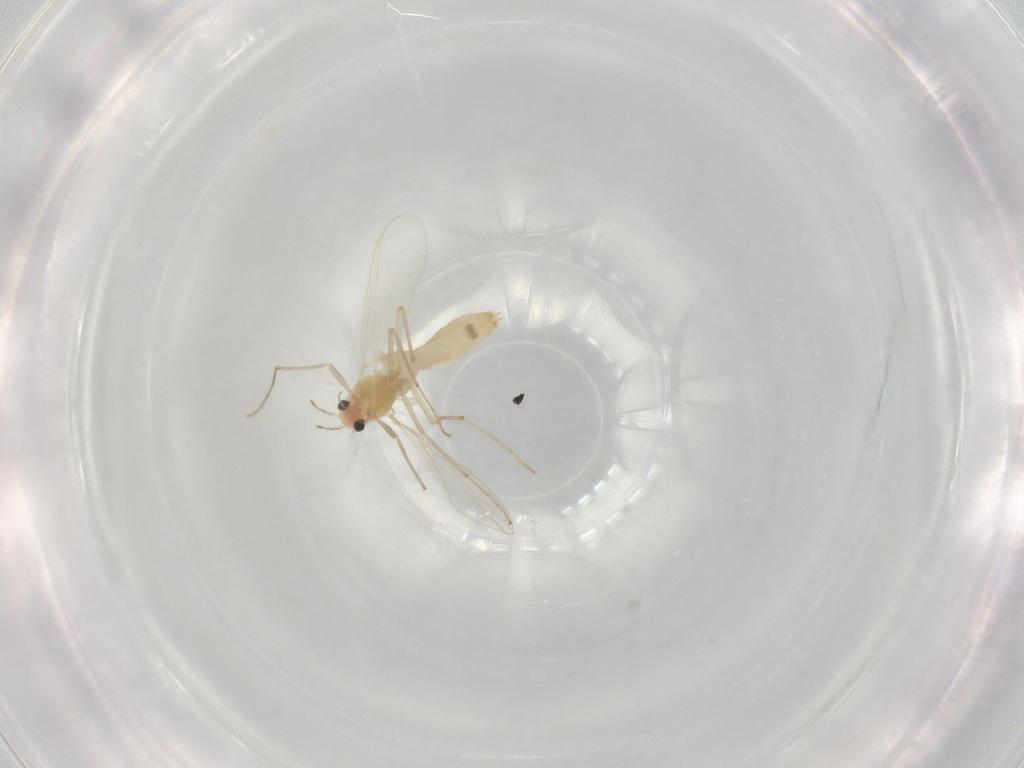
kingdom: Animalia
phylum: Arthropoda
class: Insecta
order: Diptera
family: Chironomidae
